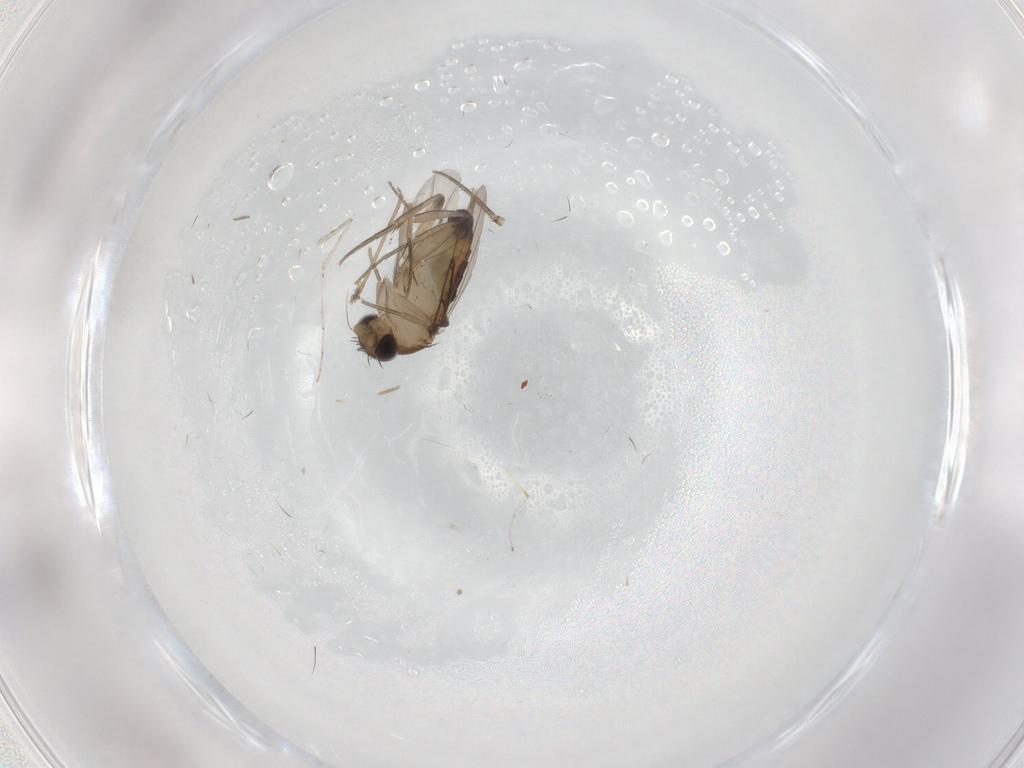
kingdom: Animalia
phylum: Arthropoda
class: Insecta
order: Diptera
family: Phoridae
